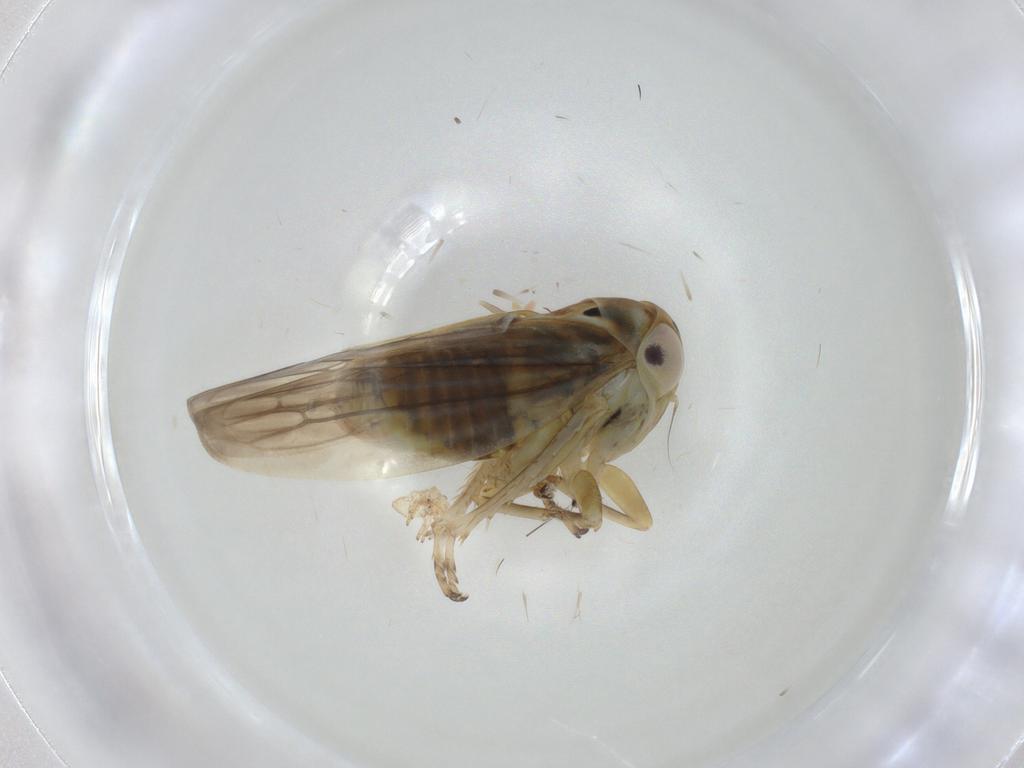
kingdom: Animalia
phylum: Arthropoda
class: Insecta
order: Hemiptera
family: Cicadellidae
